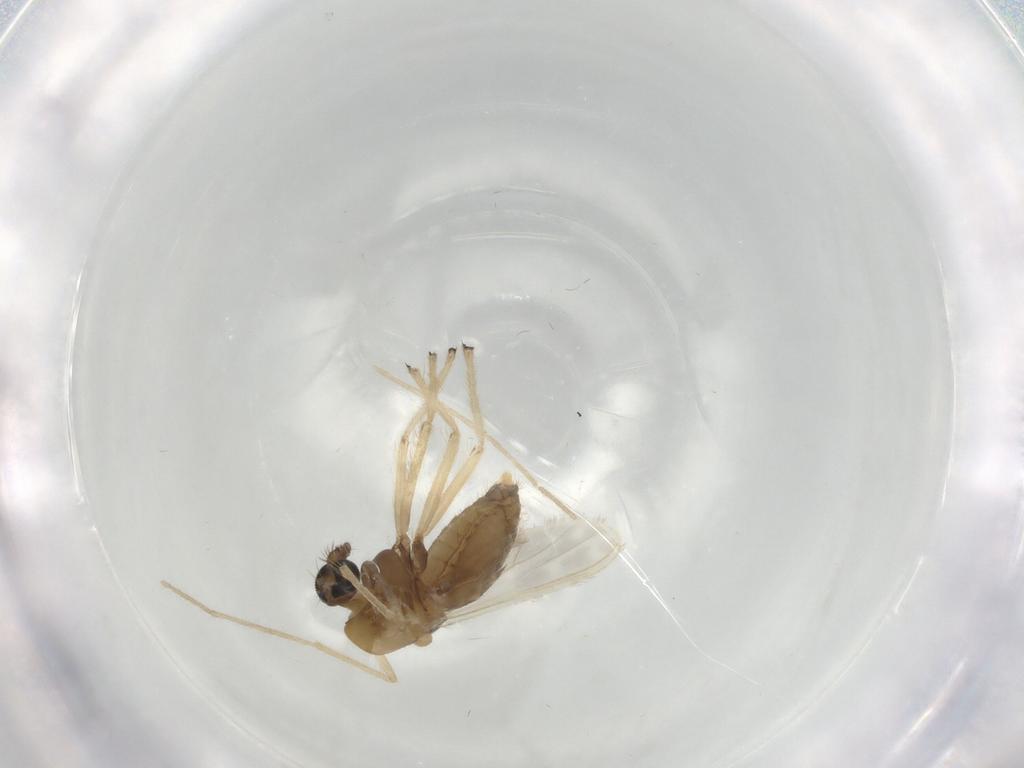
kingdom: Animalia
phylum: Arthropoda
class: Insecta
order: Diptera
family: Chironomidae
